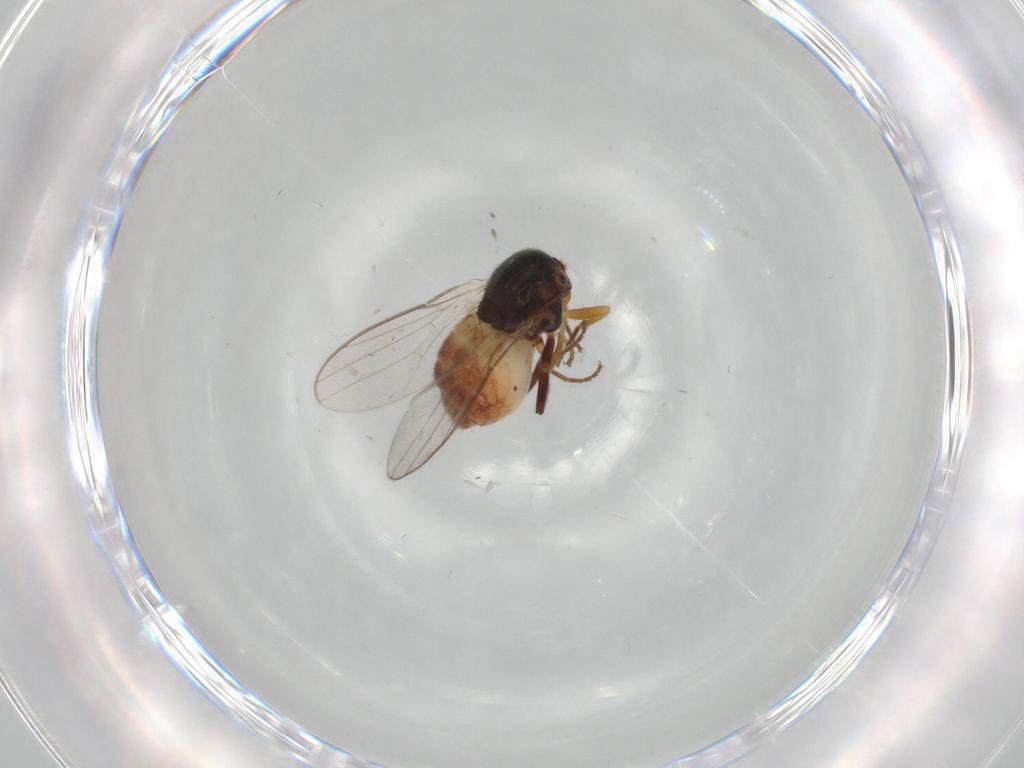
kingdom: Animalia
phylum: Arthropoda
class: Insecta
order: Diptera
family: Chloropidae
